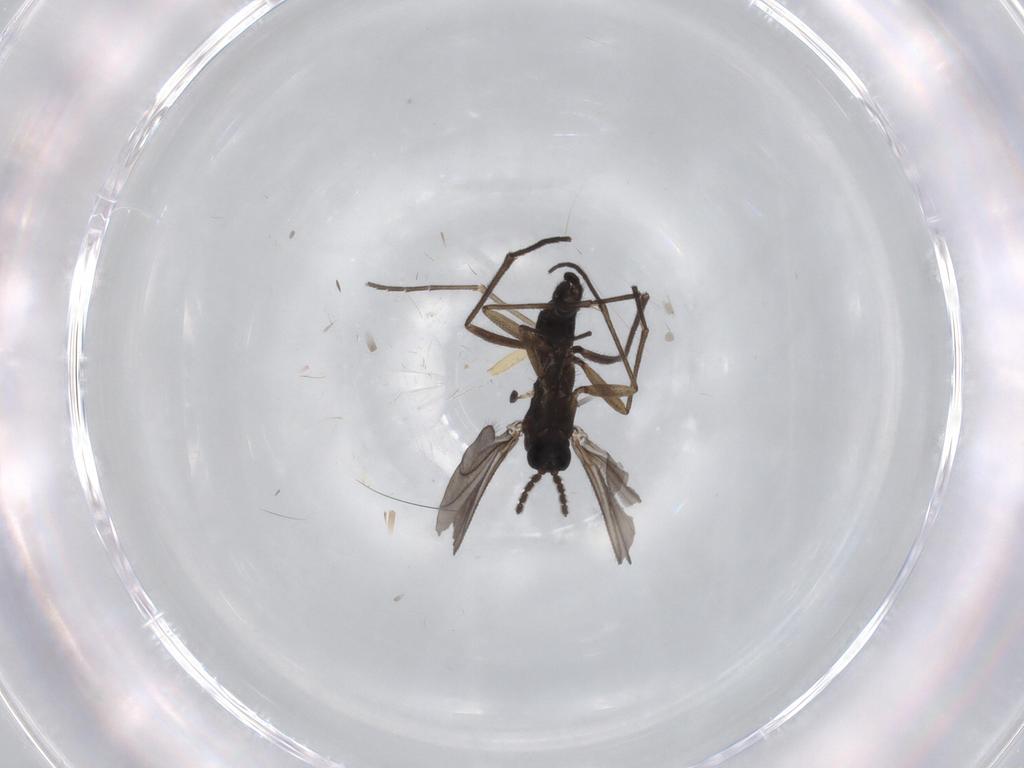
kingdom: Animalia
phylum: Arthropoda
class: Insecta
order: Diptera
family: Sciaridae
